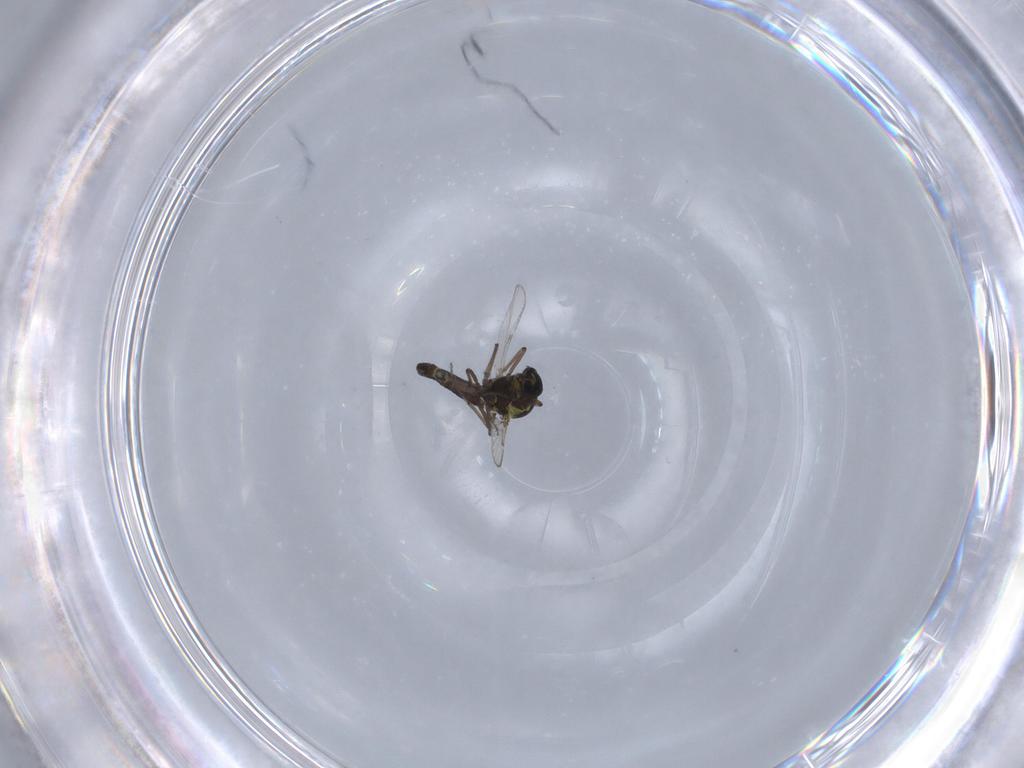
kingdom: Animalia
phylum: Arthropoda
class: Insecta
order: Diptera
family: Ceratopogonidae
